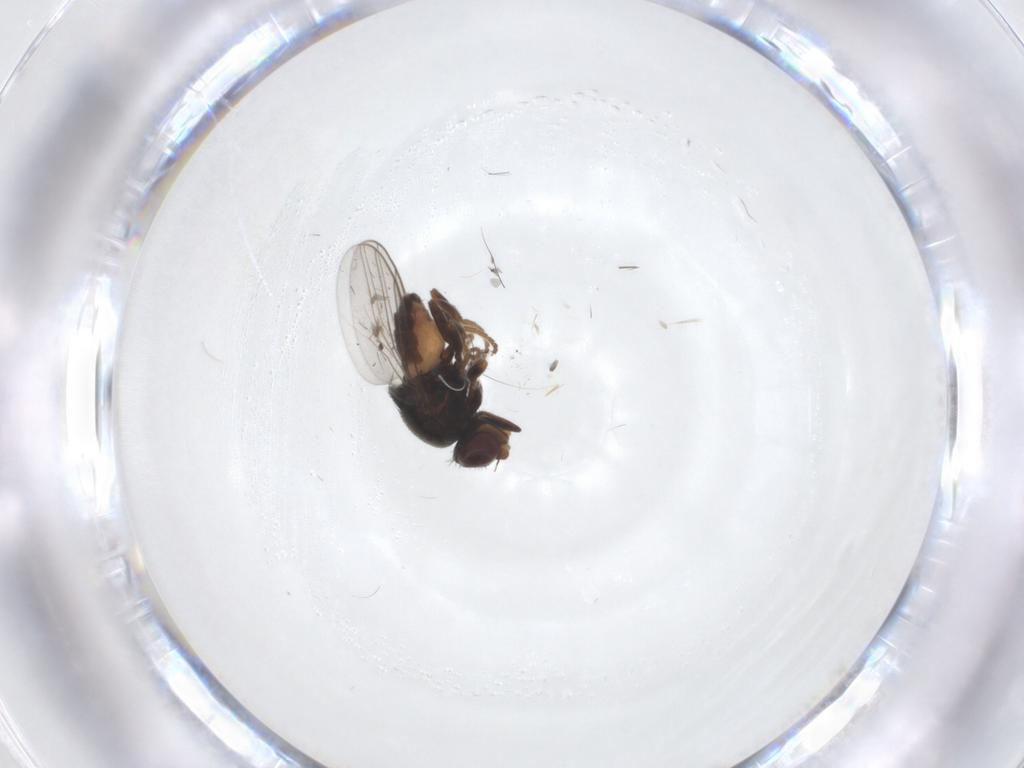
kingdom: Animalia
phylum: Arthropoda
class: Insecta
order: Diptera
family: Chloropidae
